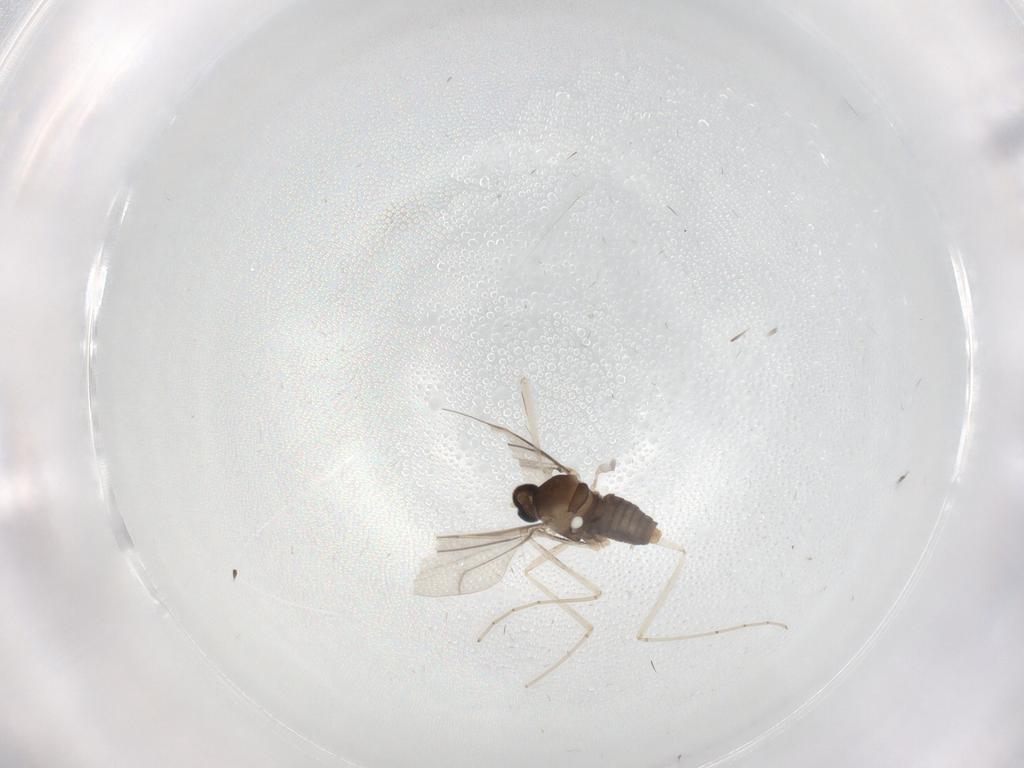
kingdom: Animalia
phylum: Arthropoda
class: Insecta
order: Diptera
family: Cecidomyiidae
